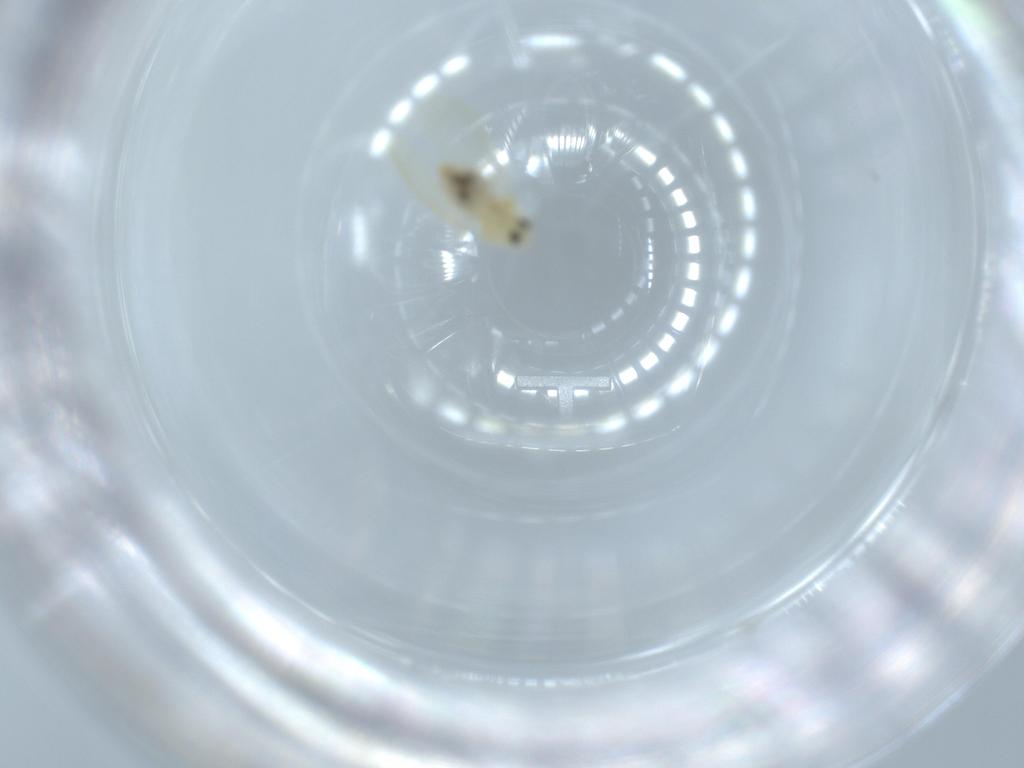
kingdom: Animalia
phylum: Arthropoda
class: Insecta
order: Hemiptera
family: Aleyrodidae
